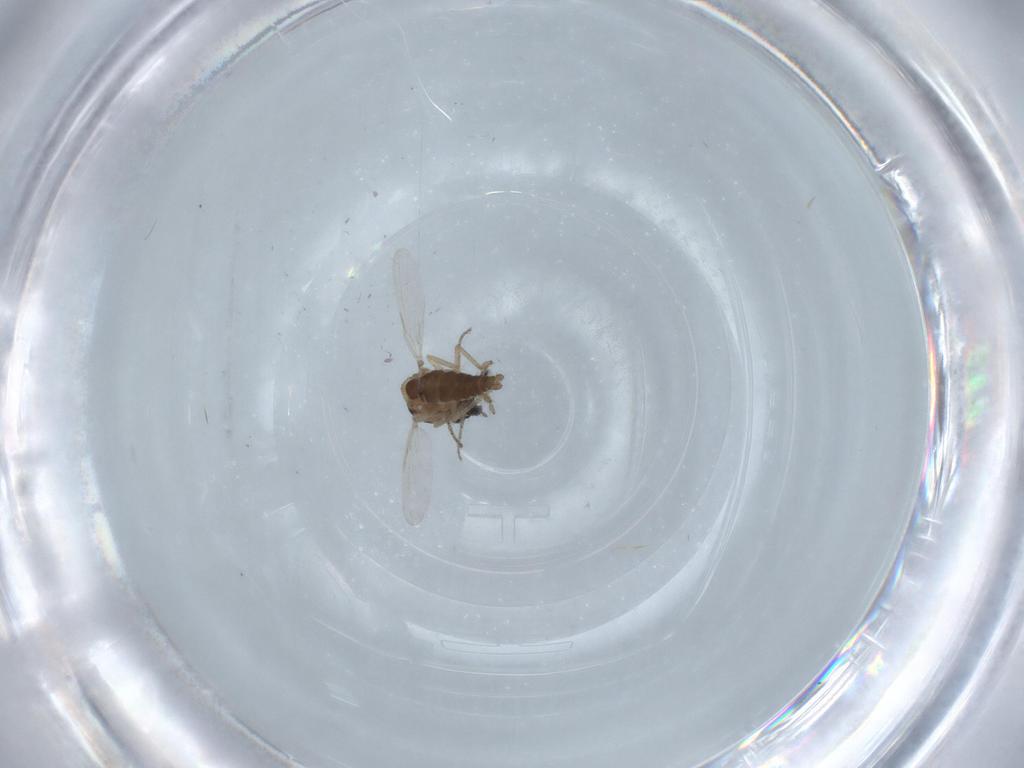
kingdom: Animalia
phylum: Arthropoda
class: Insecta
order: Diptera
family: Ceratopogonidae
